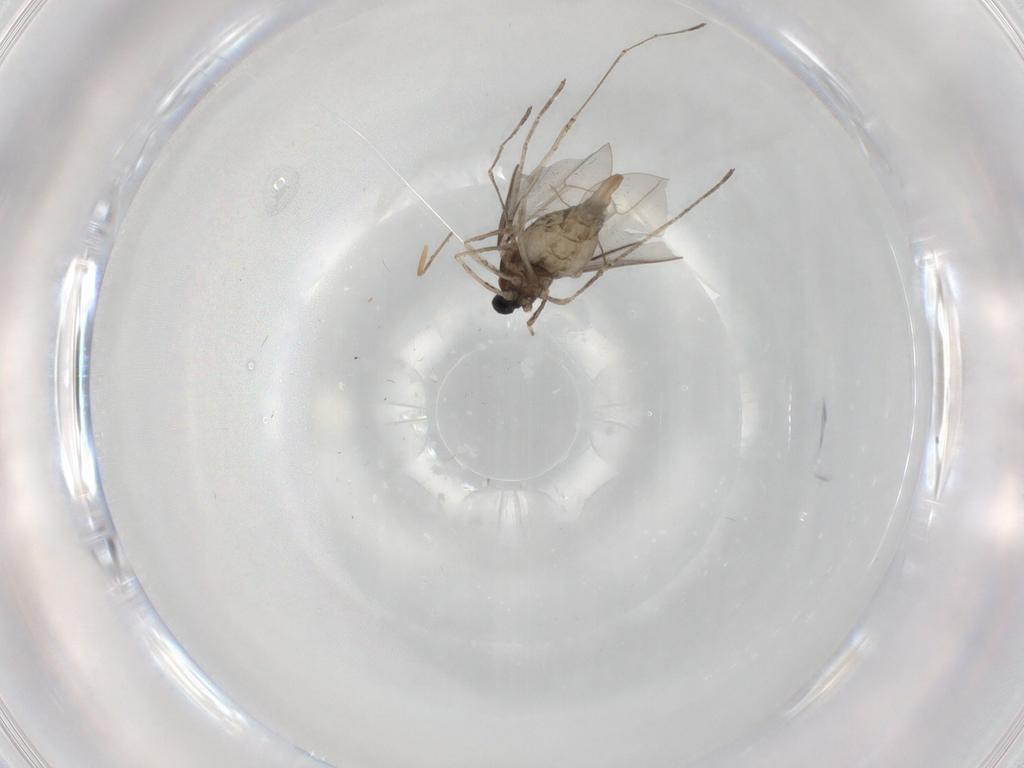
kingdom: Animalia
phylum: Arthropoda
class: Insecta
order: Diptera
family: Cecidomyiidae
